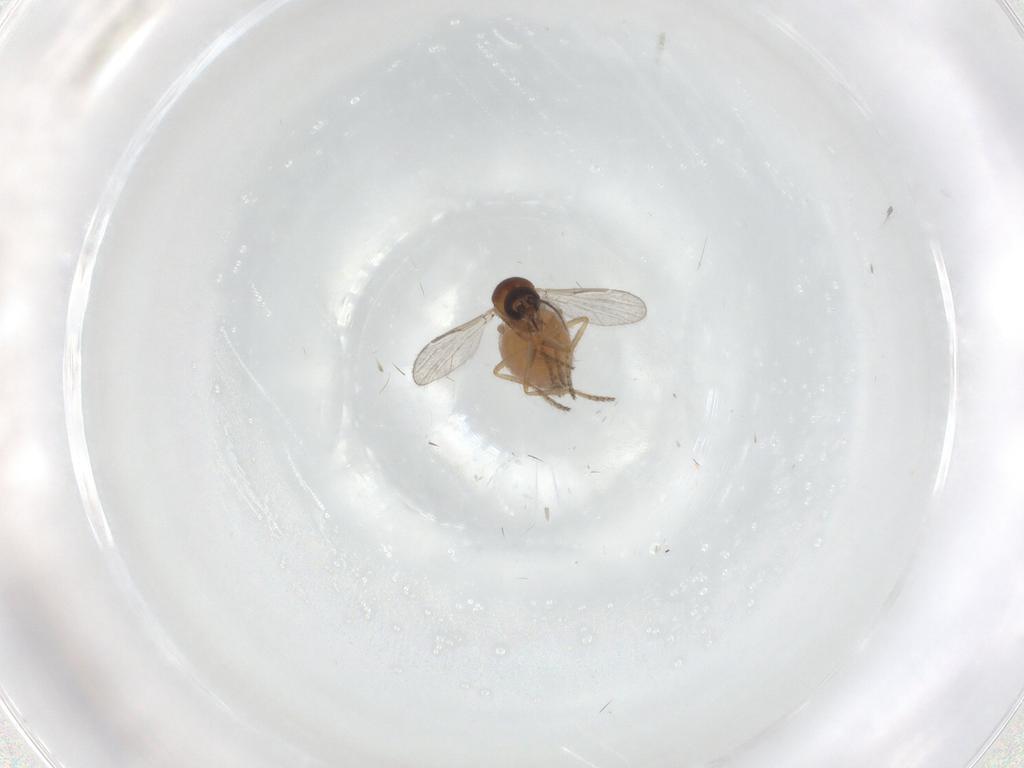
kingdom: Animalia
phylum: Arthropoda
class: Insecta
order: Diptera
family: Ceratopogonidae
